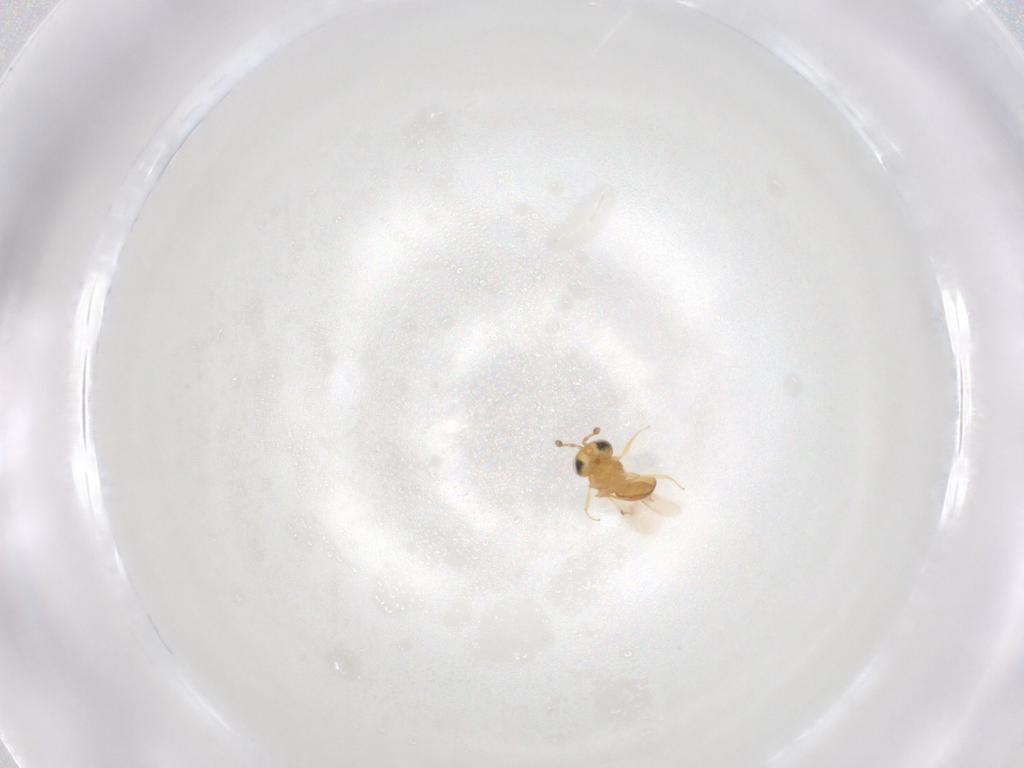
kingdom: Animalia
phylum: Arthropoda
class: Insecta
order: Hymenoptera
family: Scelionidae
